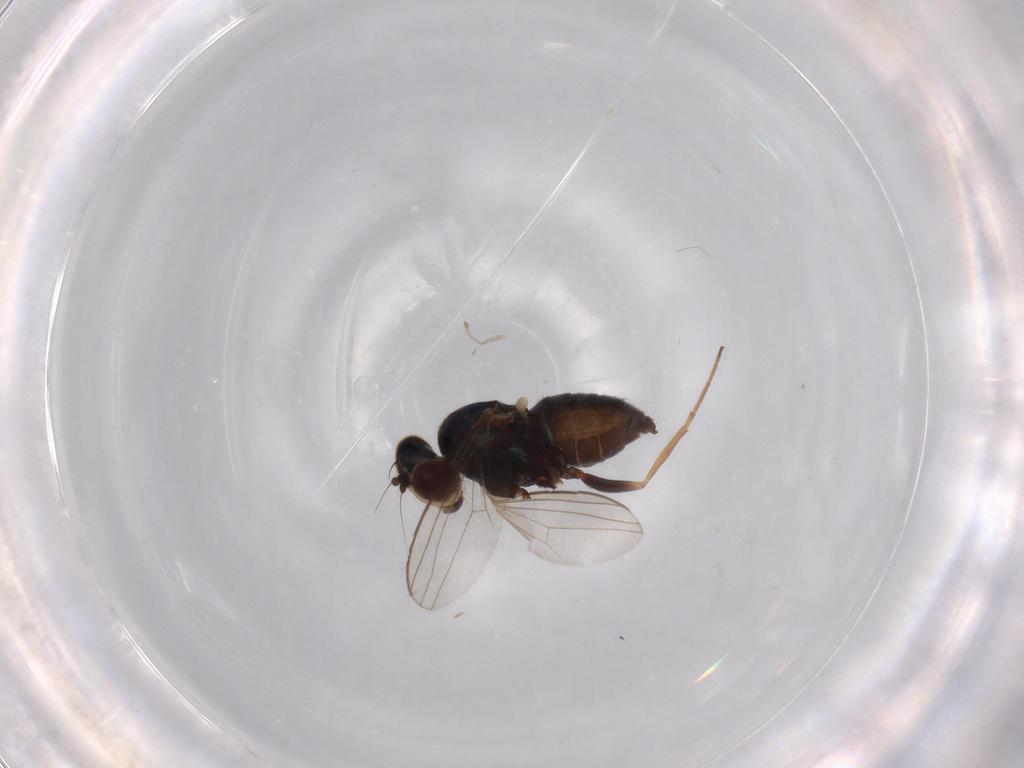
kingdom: Animalia
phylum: Arthropoda
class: Insecta
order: Diptera
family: Dolichopodidae
